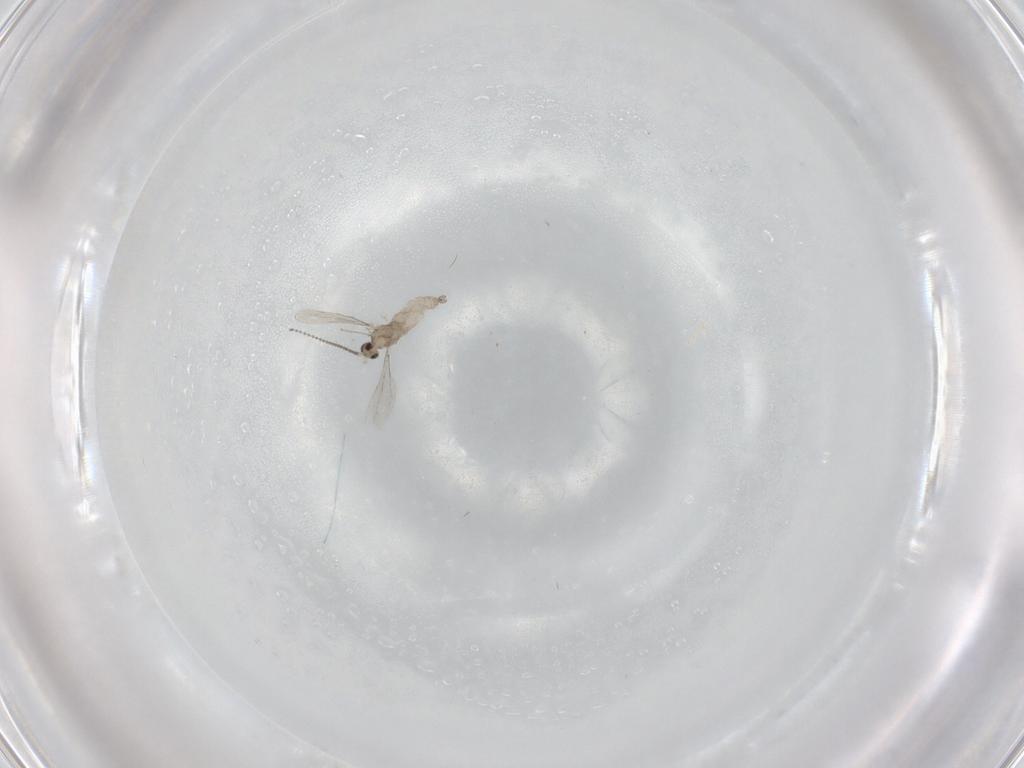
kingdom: Animalia
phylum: Arthropoda
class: Insecta
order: Diptera
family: Cecidomyiidae
